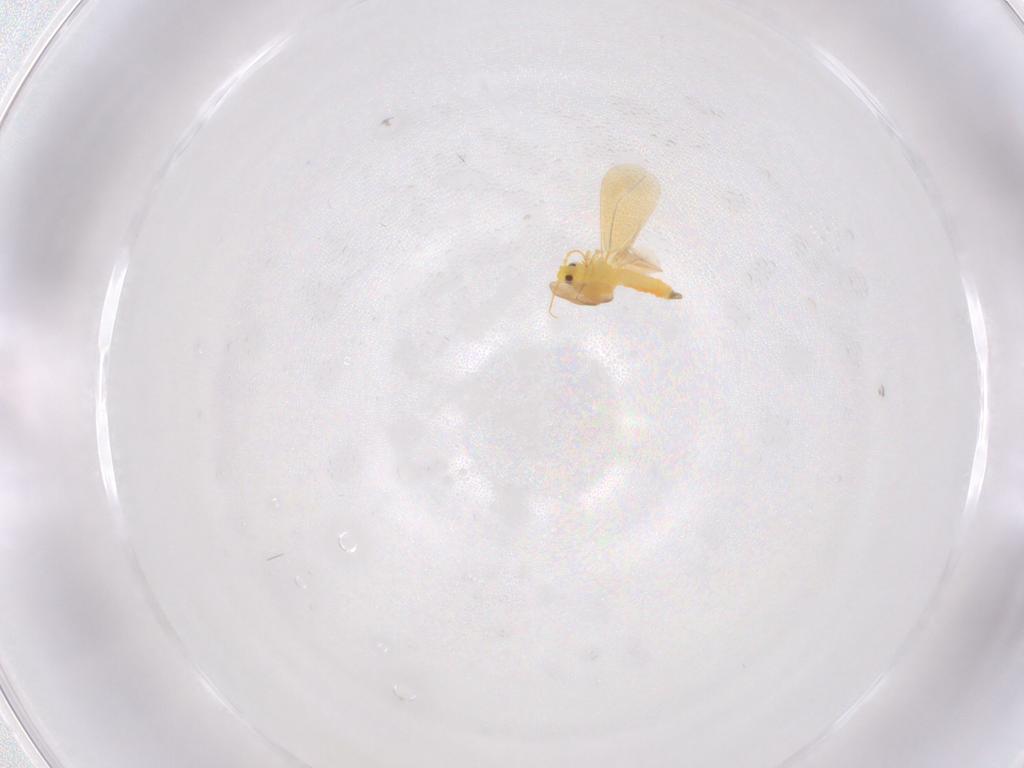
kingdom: Animalia
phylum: Arthropoda
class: Insecta
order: Hemiptera
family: Aleyrodidae
